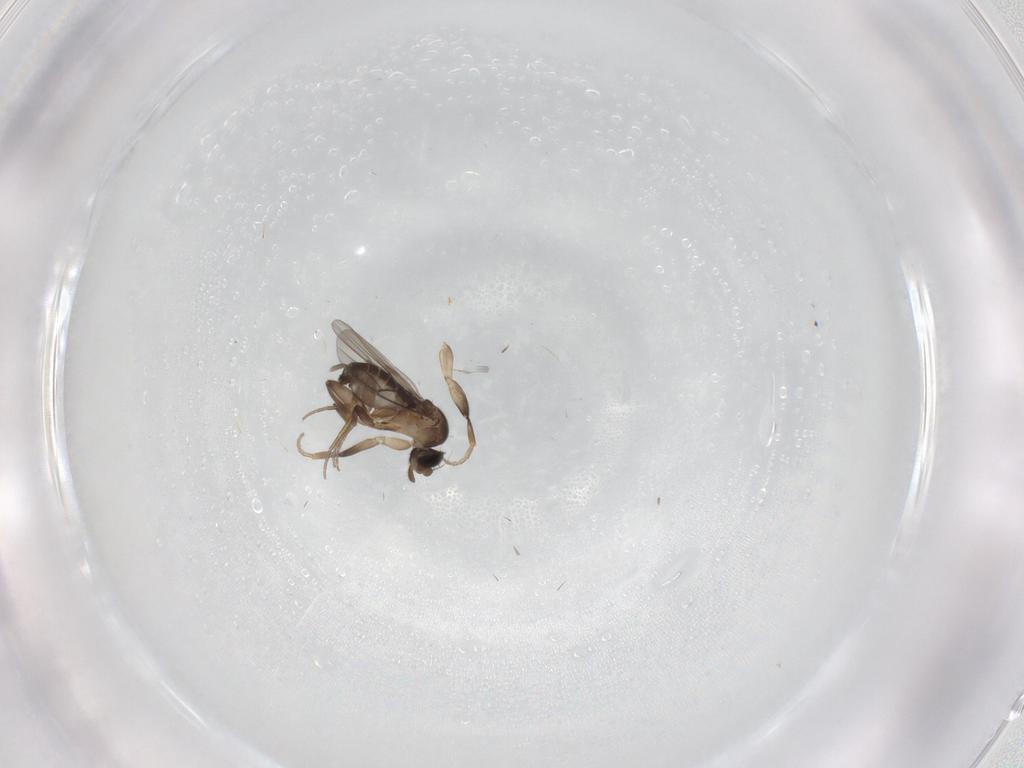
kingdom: Animalia
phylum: Arthropoda
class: Insecta
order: Diptera
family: Phoridae
